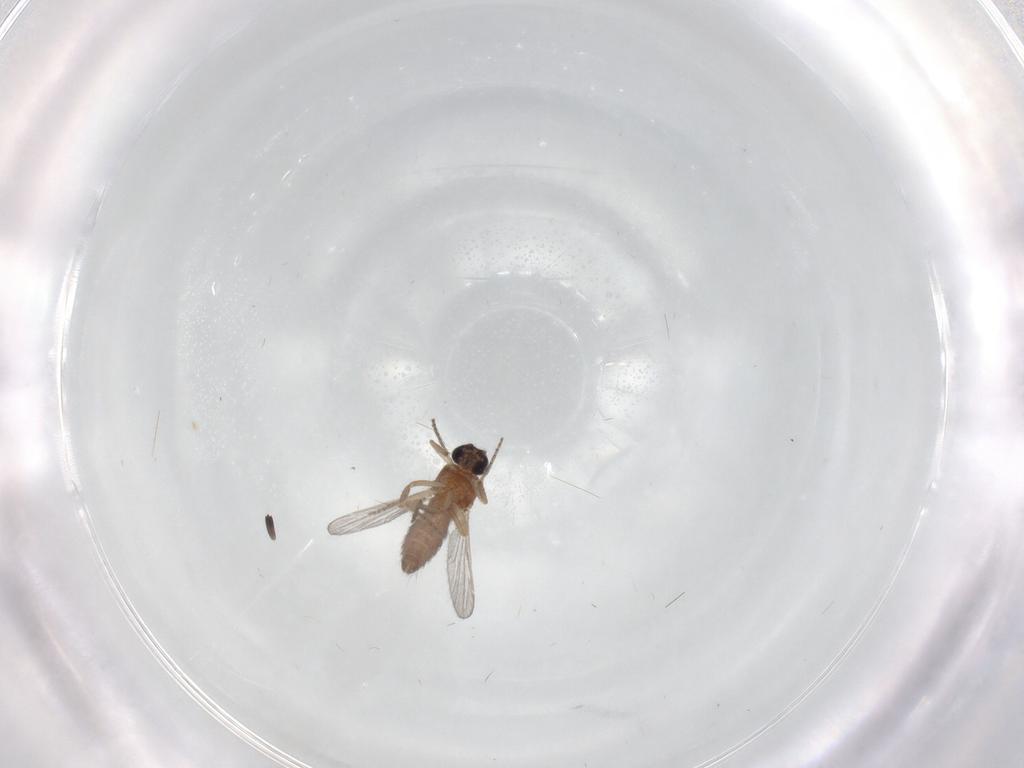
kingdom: Animalia
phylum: Arthropoda
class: Insecta
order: Diptera
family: Ceratopogonidae
